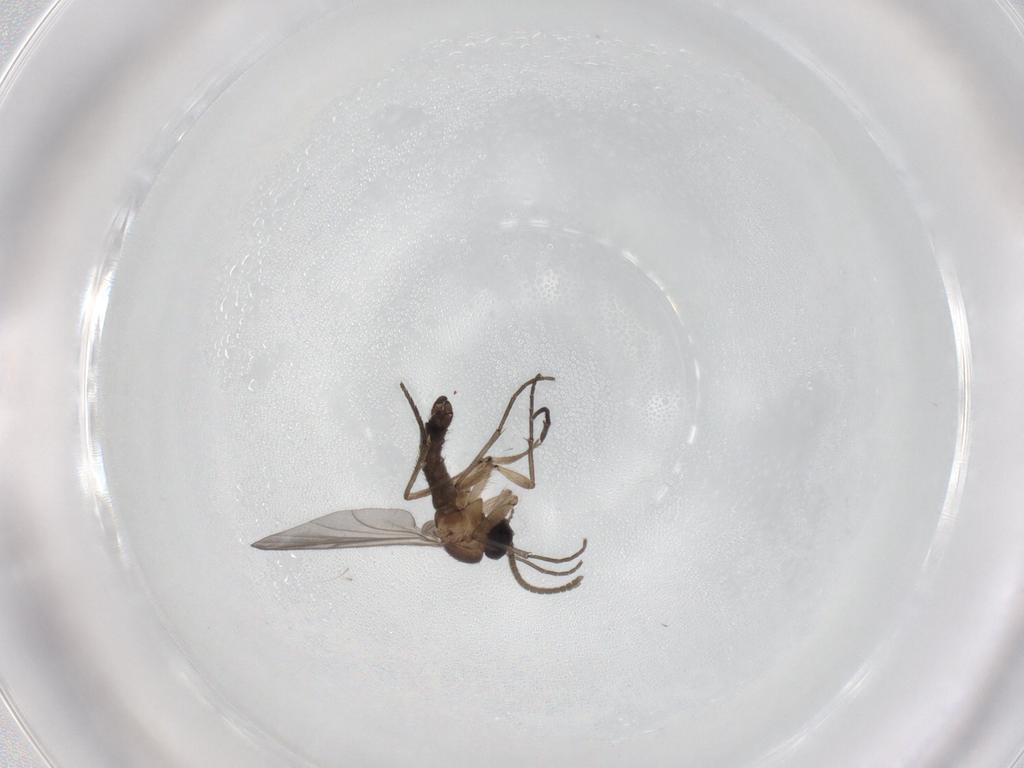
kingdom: Animalia
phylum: Arthropoda
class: Insecta
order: Diptera
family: Sciaridae
